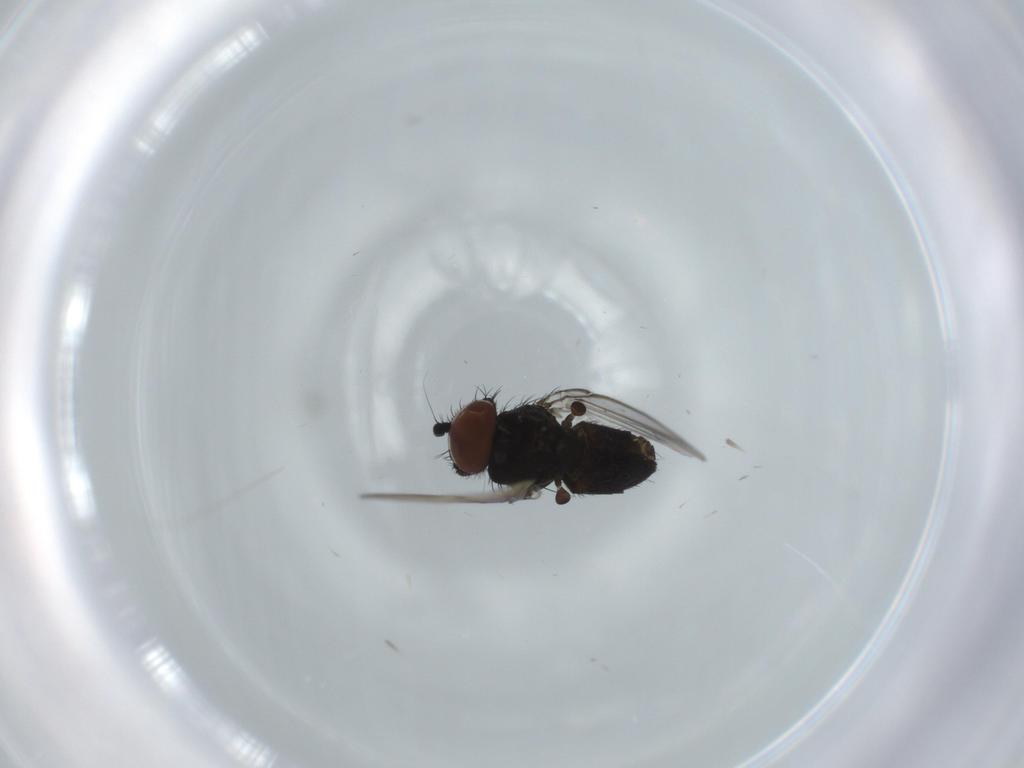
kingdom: Animalia
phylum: Arthropoda
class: Insecta
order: Diptera
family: Milichiidae
